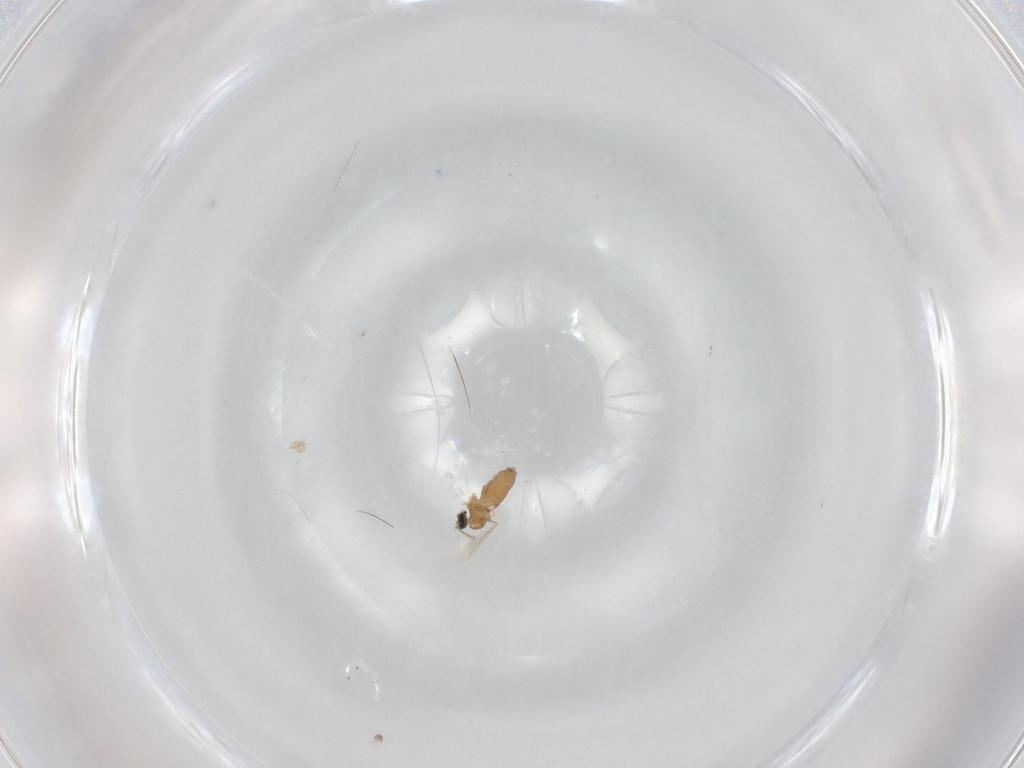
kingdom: Animalia
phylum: Arthropoda
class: Insecta
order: Diptera
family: Cecidomyiidae
